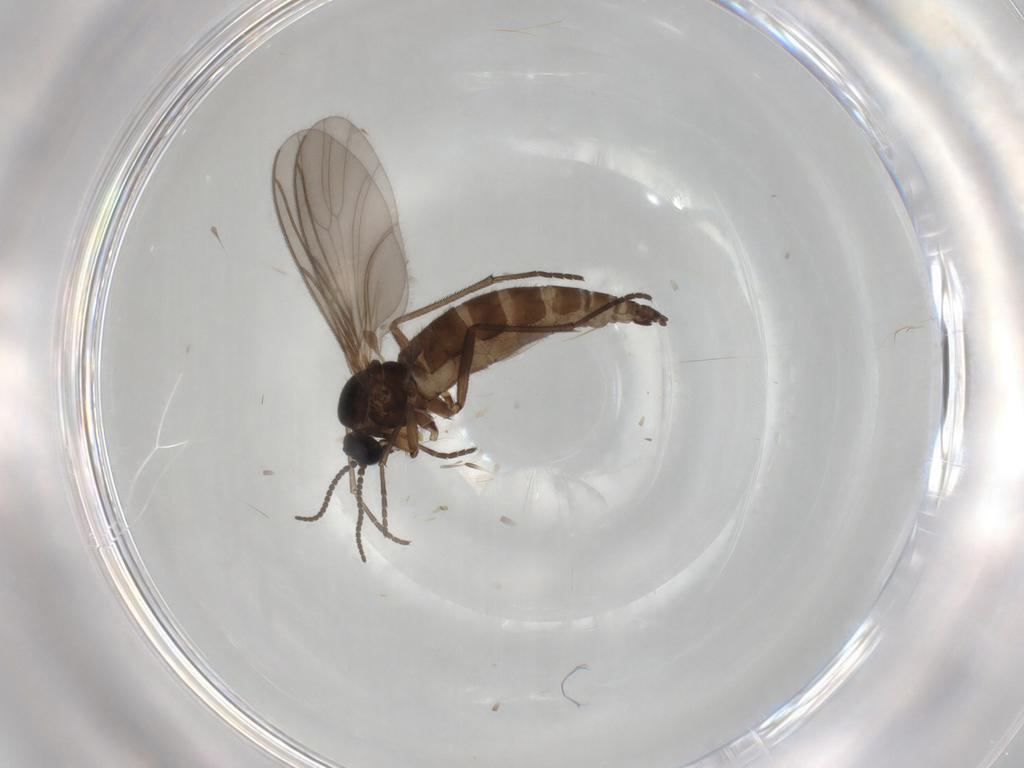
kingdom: Animalia
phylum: Arthropoda
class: Insecta
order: Diptera
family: Sciaridae
